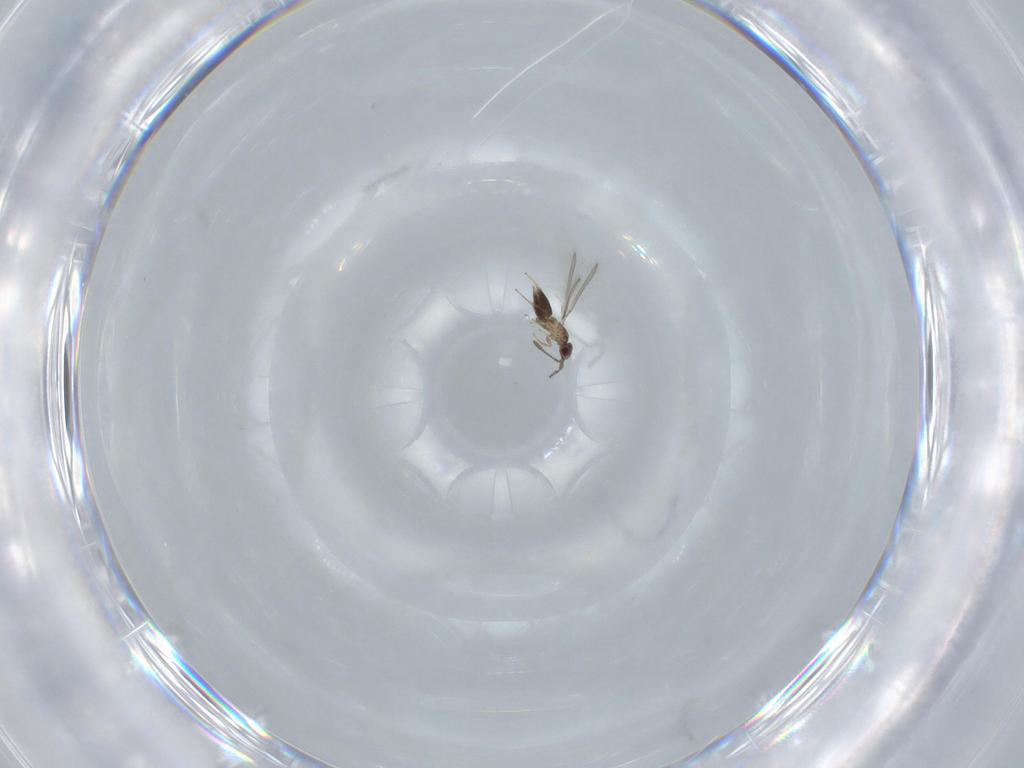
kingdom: Animalia
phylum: Arthropoda
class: Insecta
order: Hymenoptera
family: Mymaridae
